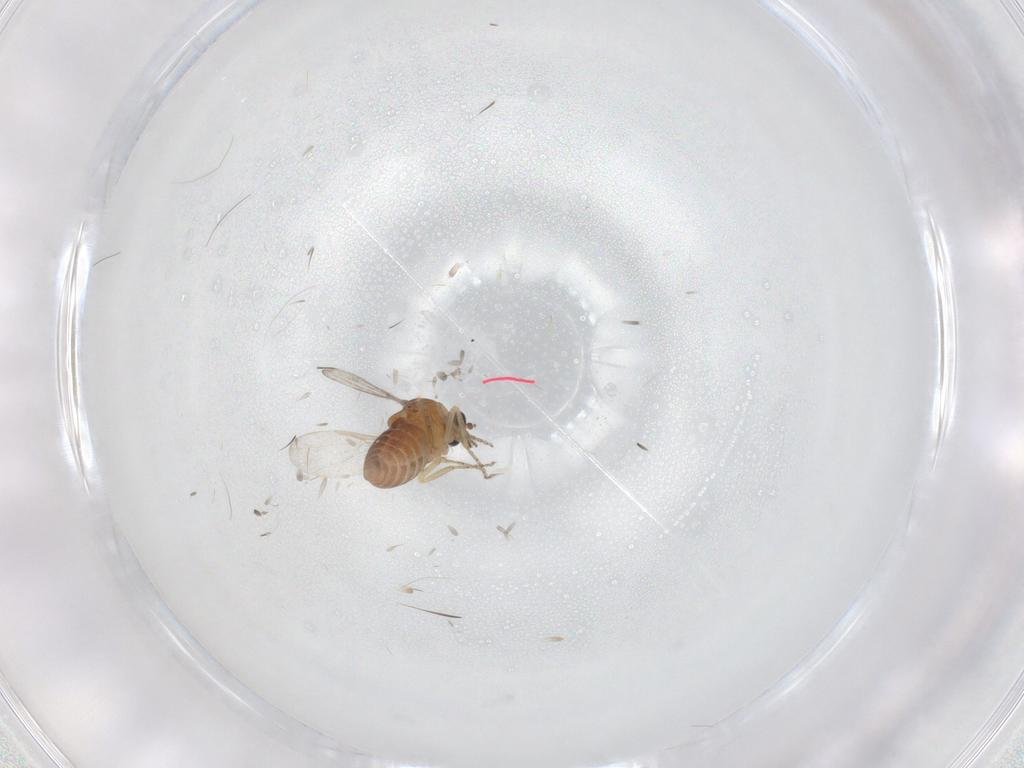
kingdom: Animalia
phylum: Arthropoda
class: Insecta
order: Diptera
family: Ceratopogonidae
